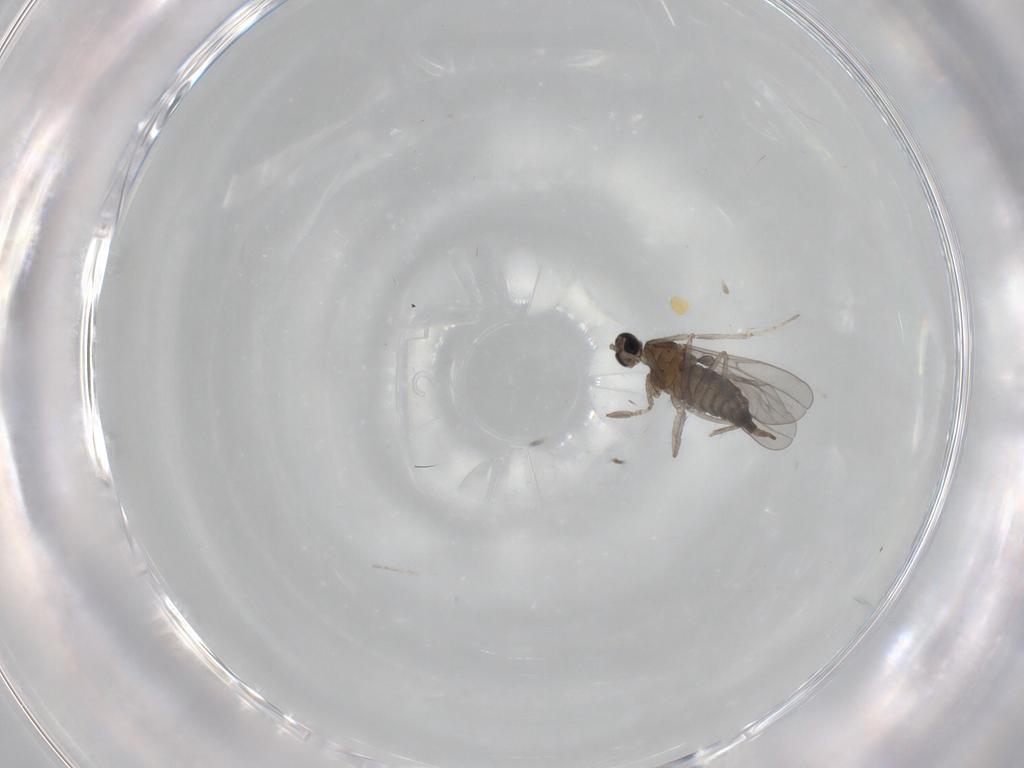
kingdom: Animalia
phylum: Arthropoda
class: Insecta
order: Diptera
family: Cecidomyiidae
